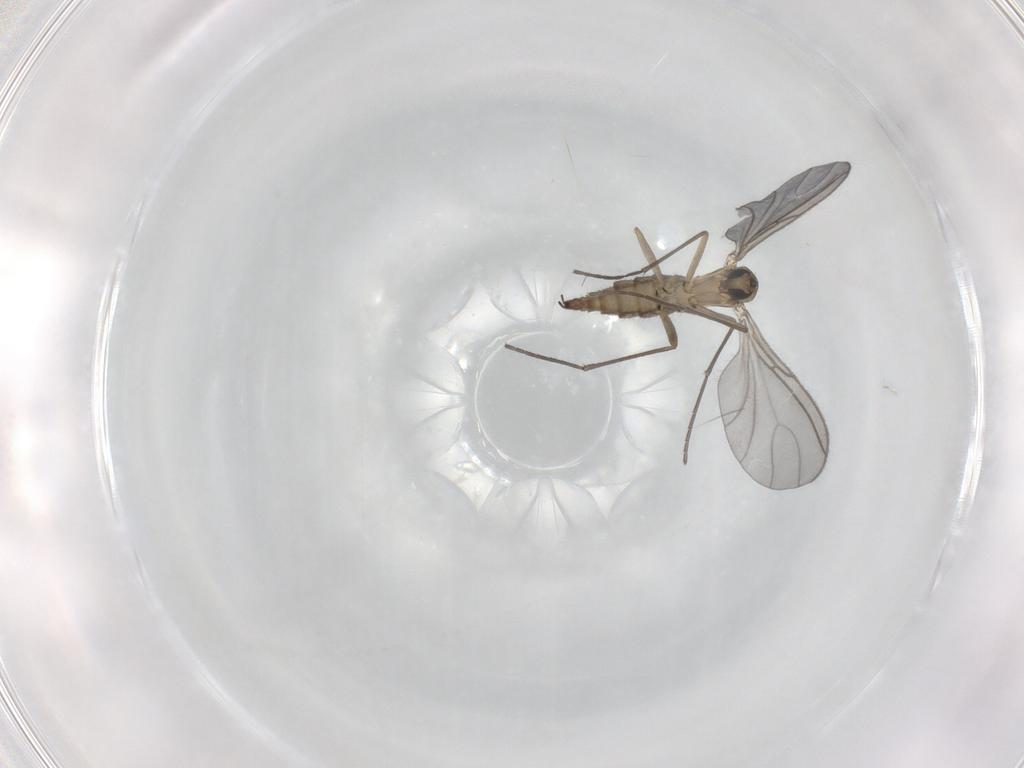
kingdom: Animalia
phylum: Arthropoda
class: Insecta
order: Diptera
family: Sciaridae
